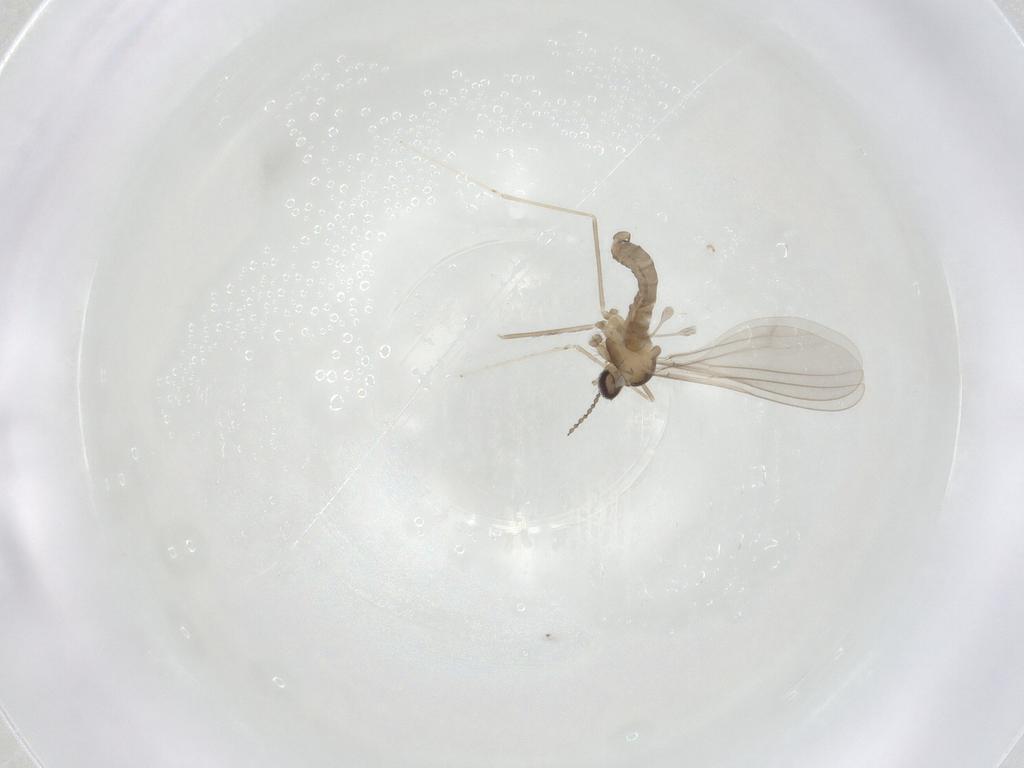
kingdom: Animalia
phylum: Arthropoda
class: Insecta
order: Diptera
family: Cecidomyiidae
